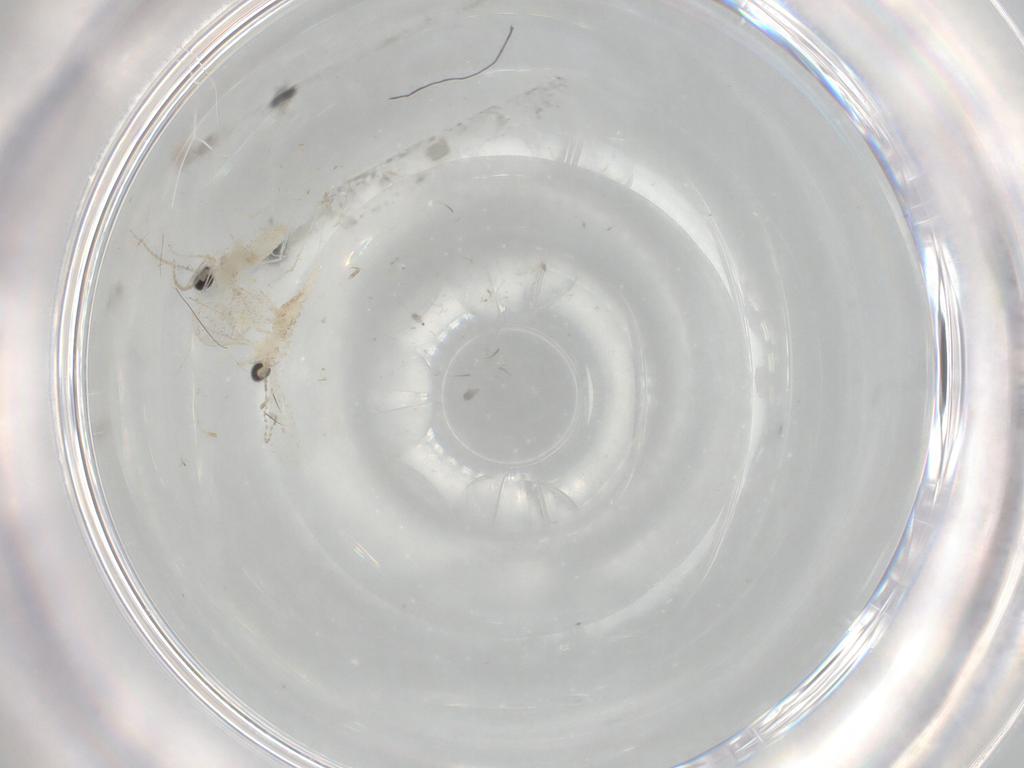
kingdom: Animalia
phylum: Arthropoda
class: Insecta
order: Diptera
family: Cecidomyiidae
